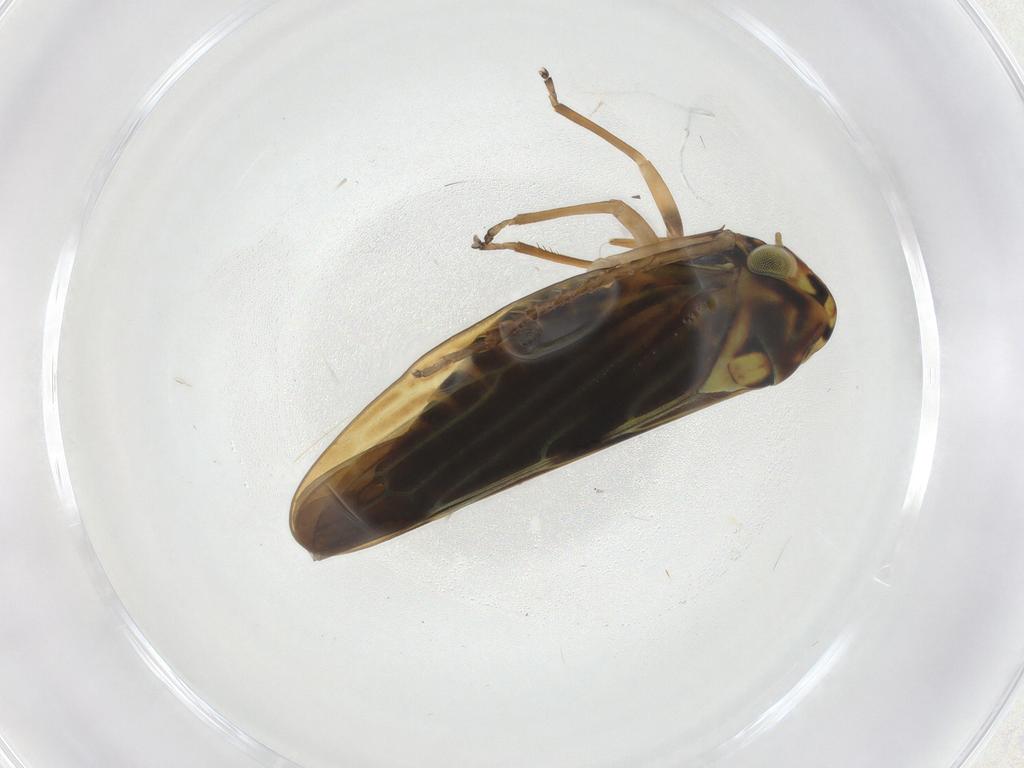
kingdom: Animalia
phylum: Arthropoda
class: Insecta
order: Hemiptera
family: Cicadellidae
